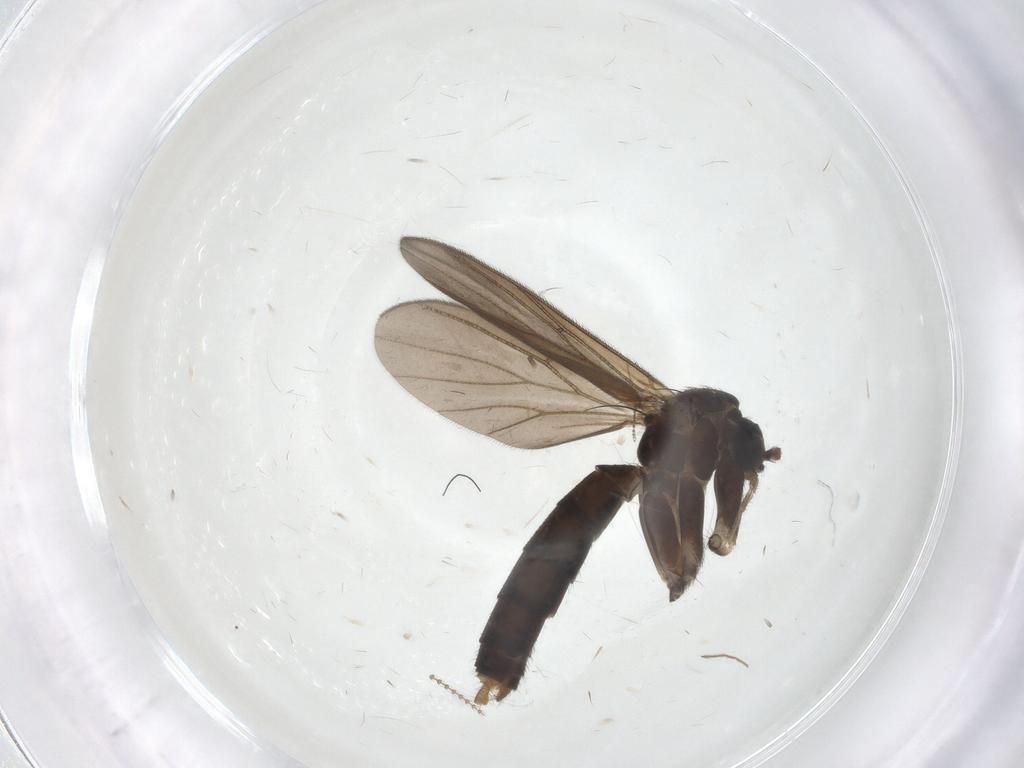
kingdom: Animalia
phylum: Arthropoda
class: Insecta
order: Diptera
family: Mycetophilidae
